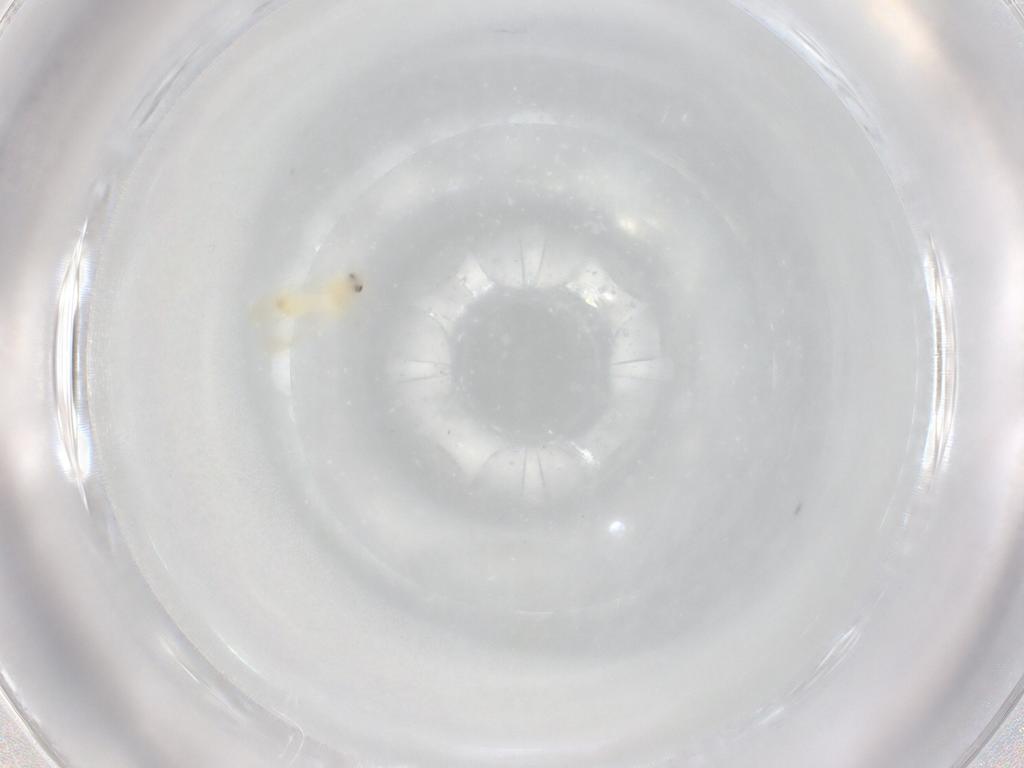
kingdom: Animalia
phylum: Arthropoda
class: Insecta
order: Hemiptera
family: Aleyrodidae
